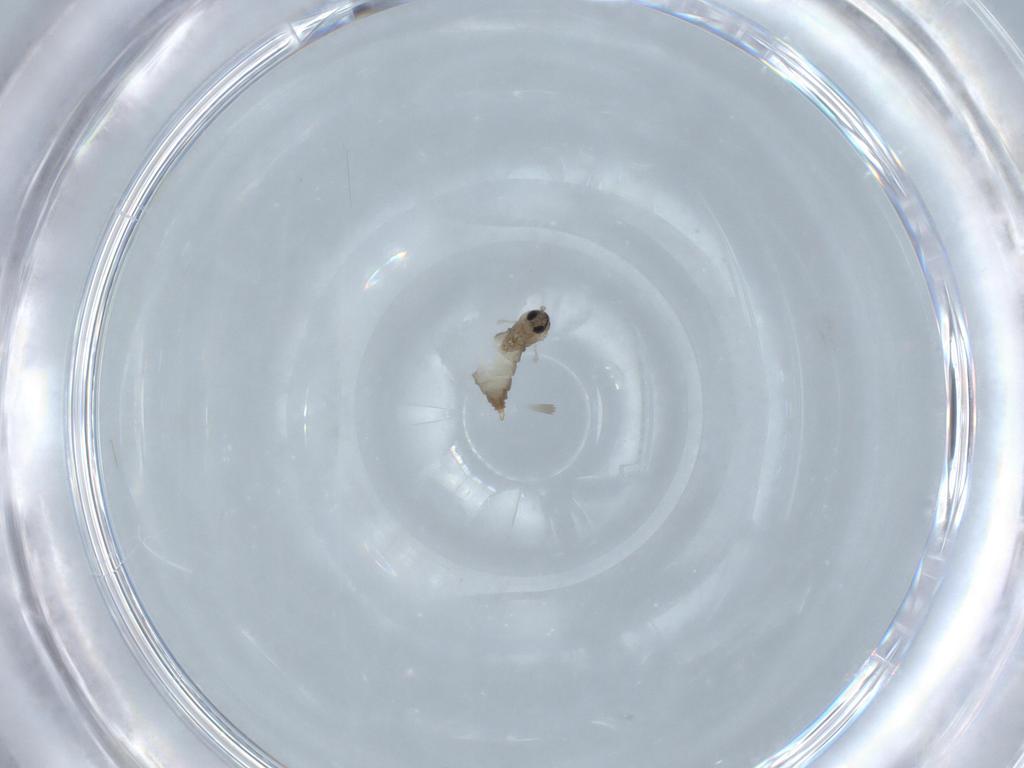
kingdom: Animalia
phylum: Arthropoda
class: Insecta
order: Diptera
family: Cecidomyiidae
